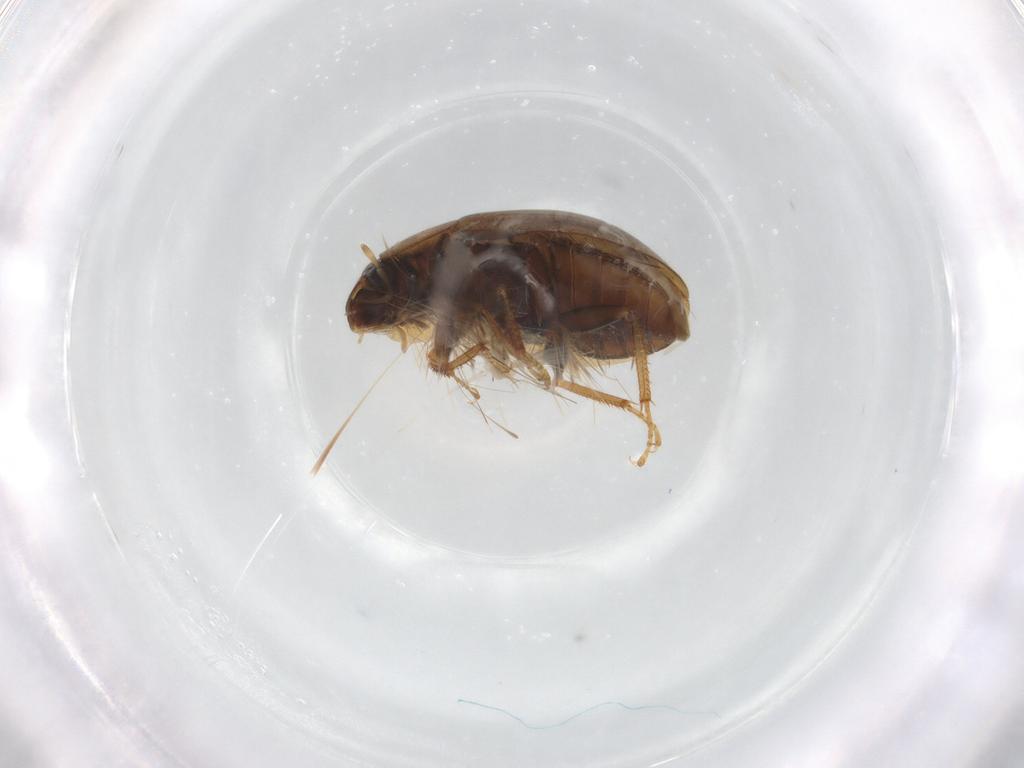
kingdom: Animalia
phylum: Arthropoda
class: Insecta
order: Coleoptera
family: Hydrophilidae
